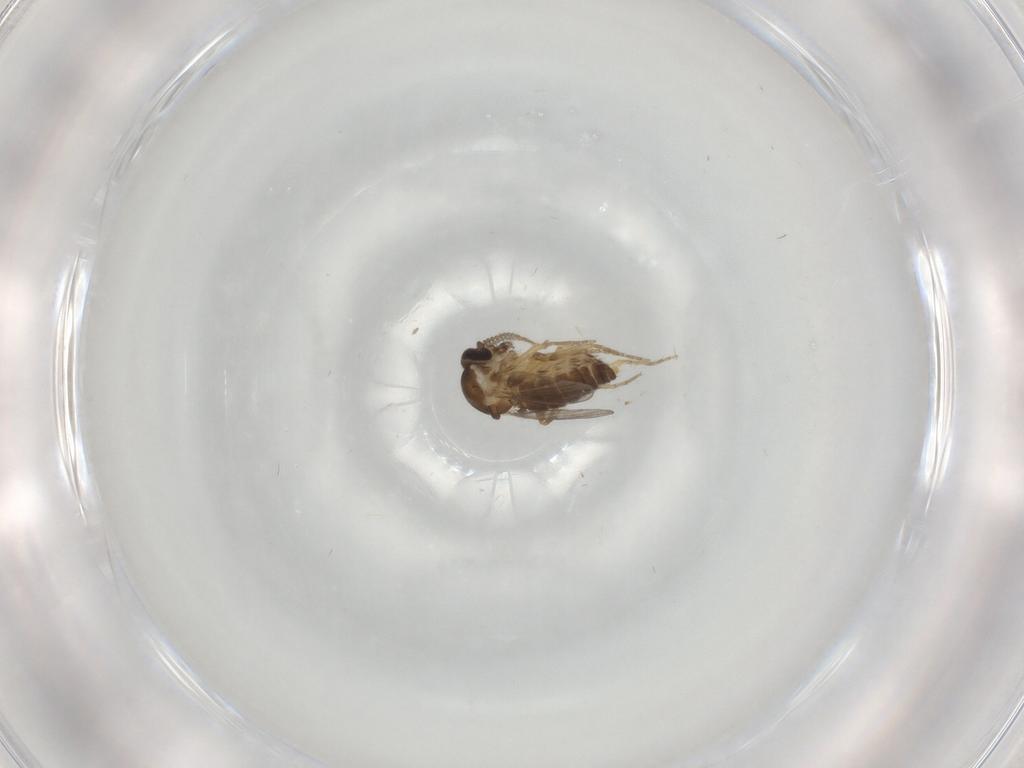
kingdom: Animalia
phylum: Arthropoda
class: Insecta
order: Diptera
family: Ceratopogonidae
